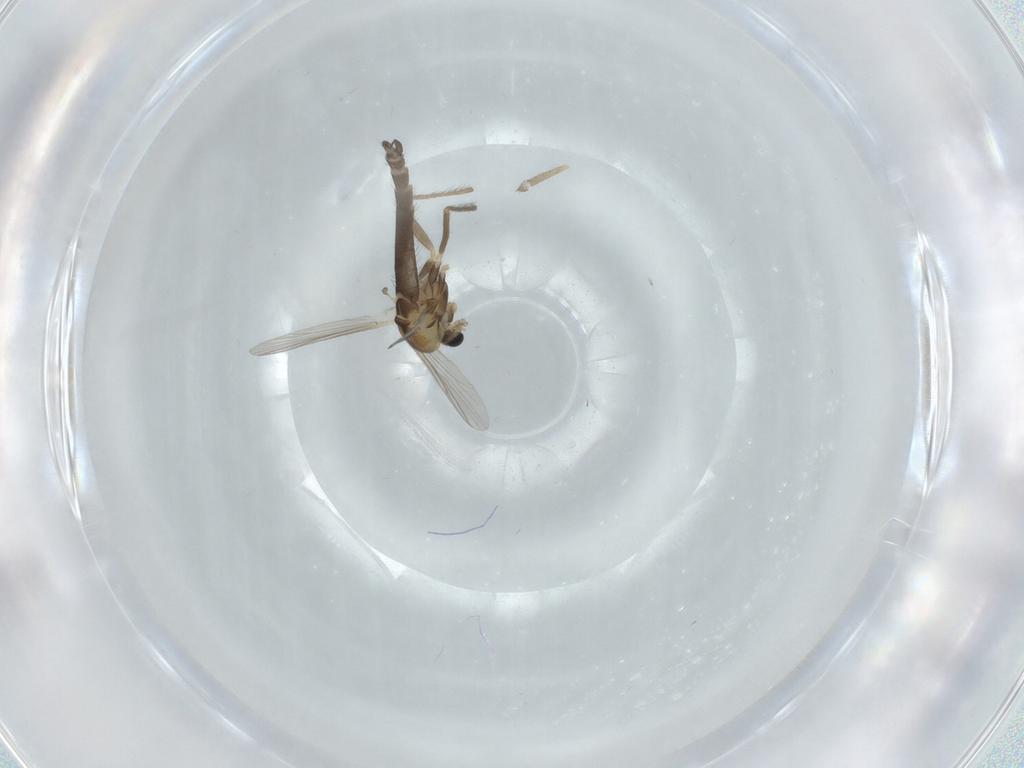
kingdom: Animalia
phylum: Arthropoda
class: Insecta
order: Diptera
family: Chironomidae
